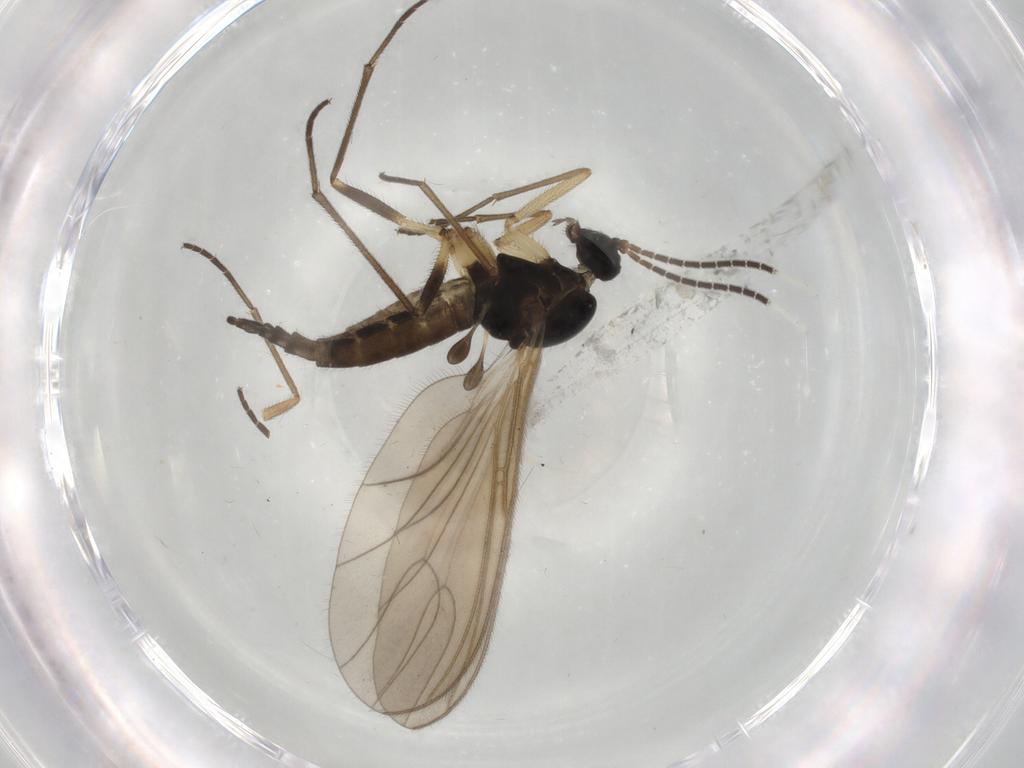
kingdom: Animalia
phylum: Arthropoda
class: Insecta
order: Diptera
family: Sciaridae
